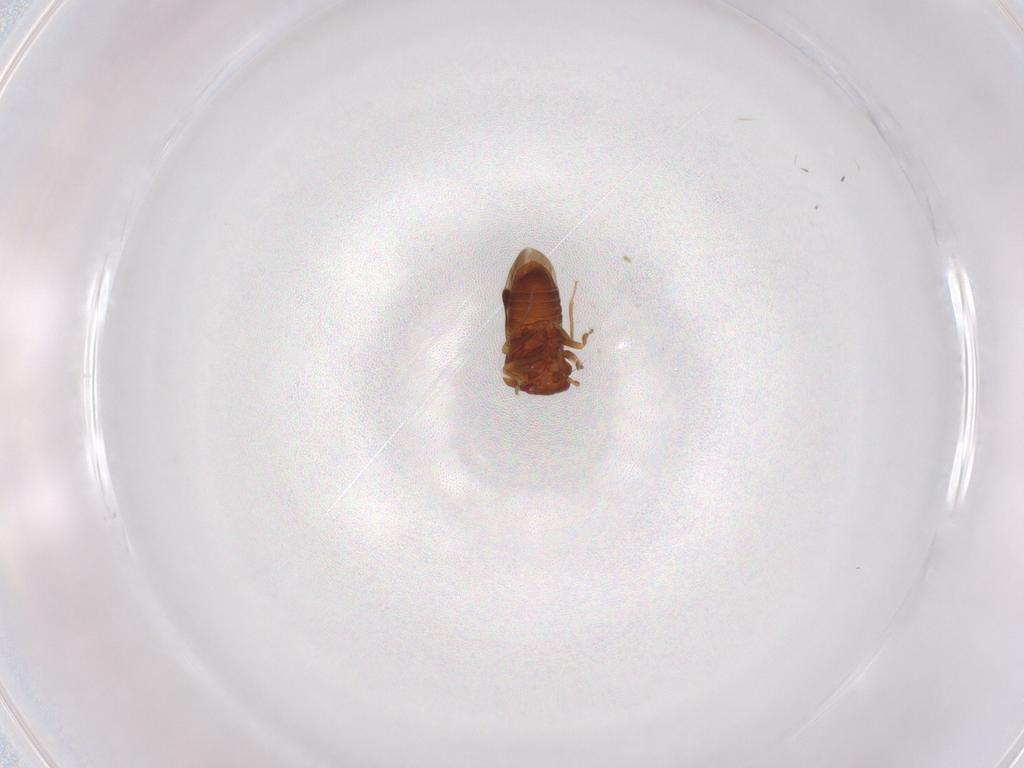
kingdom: Animalia
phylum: Arthropoda
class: Insecta
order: Hemiptera
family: Schizopteridae
